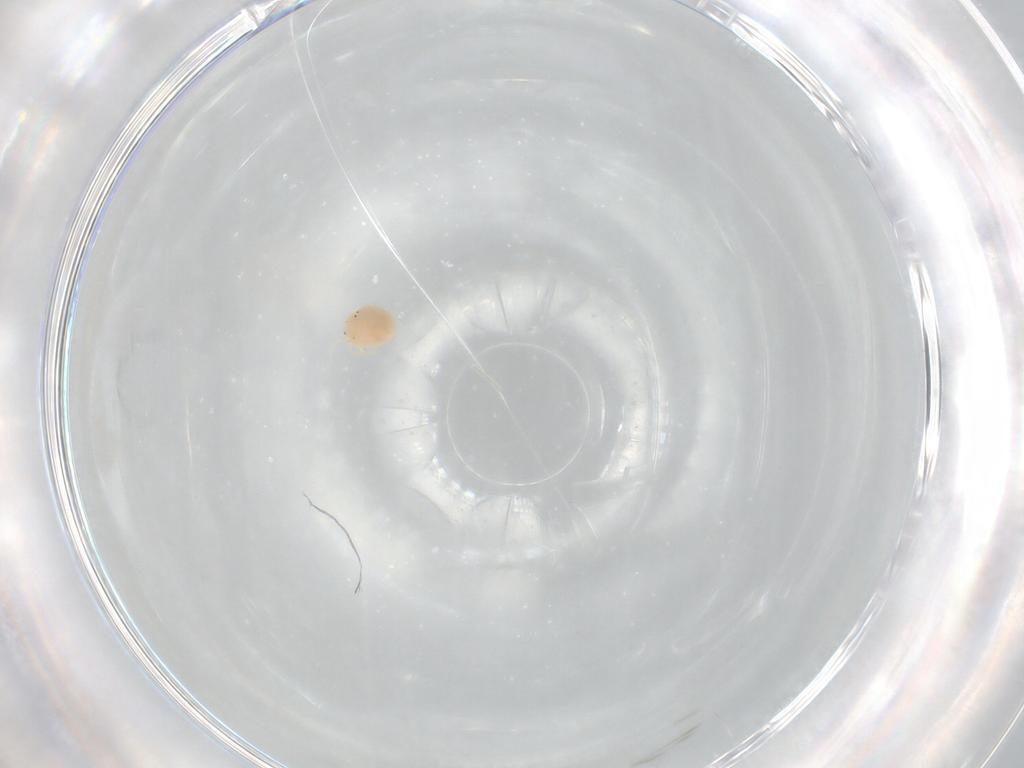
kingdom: Animalia
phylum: Arthropoda
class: Arachnida
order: Trombidiformes
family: Hydryphantidae
